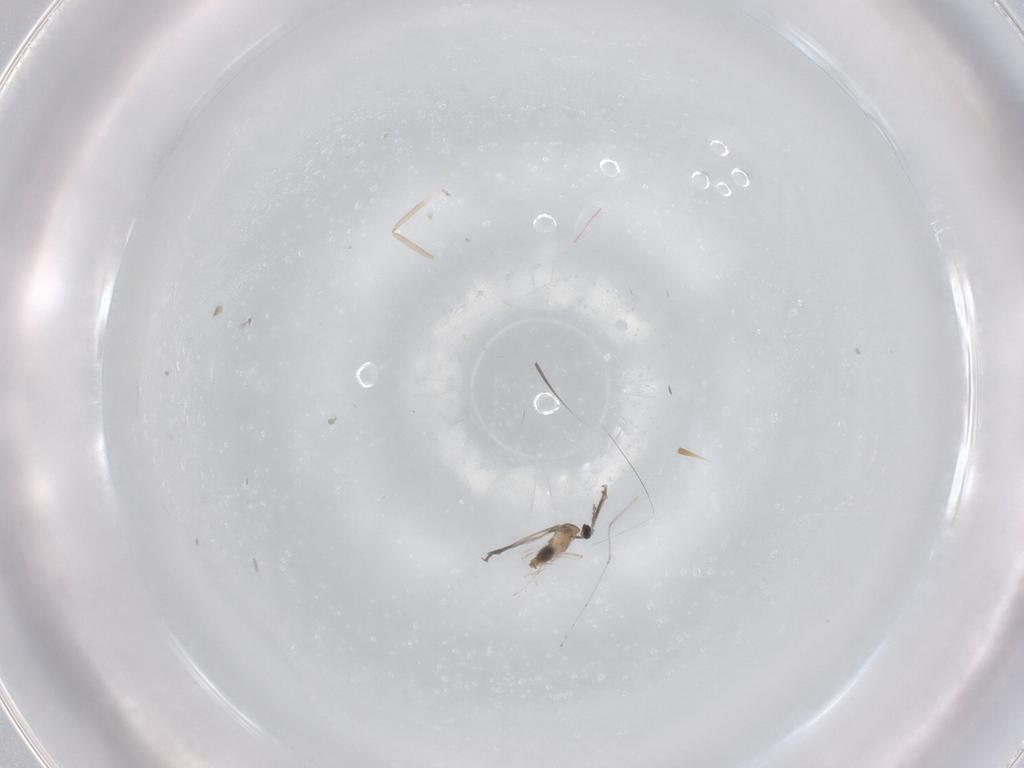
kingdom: Animalia
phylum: Arthropoda
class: Insecta
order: Diptera
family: Cecidomyiidae
